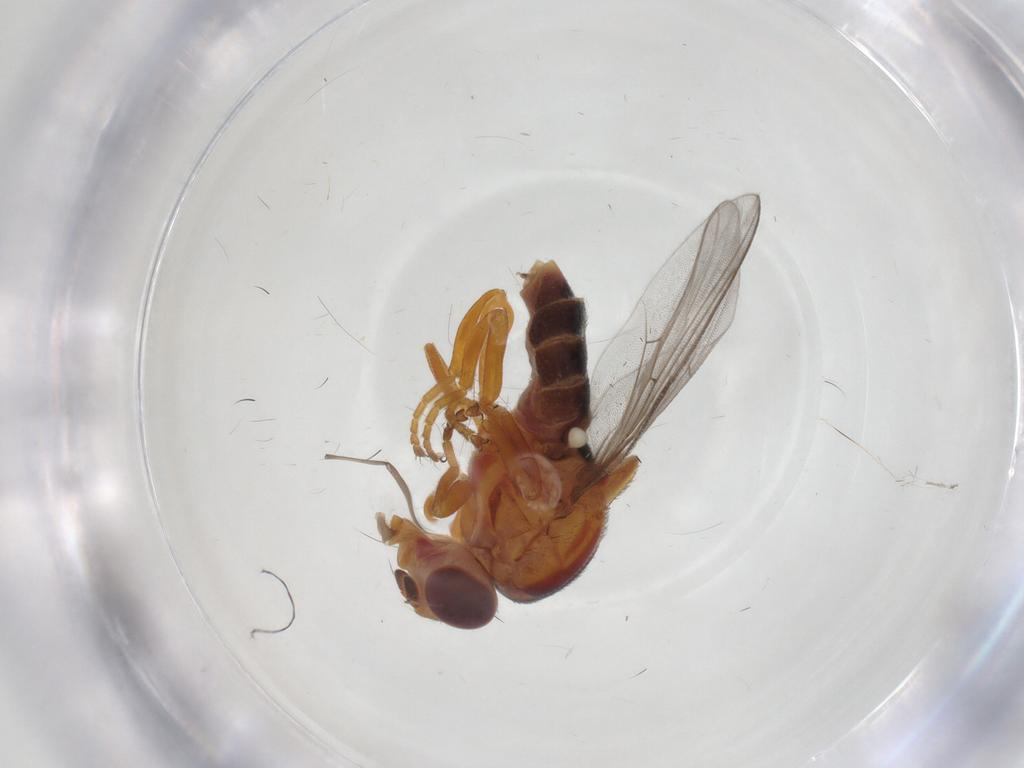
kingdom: Animalia
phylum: Arthropoda
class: Insecta
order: Diptera
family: Chloropidae
